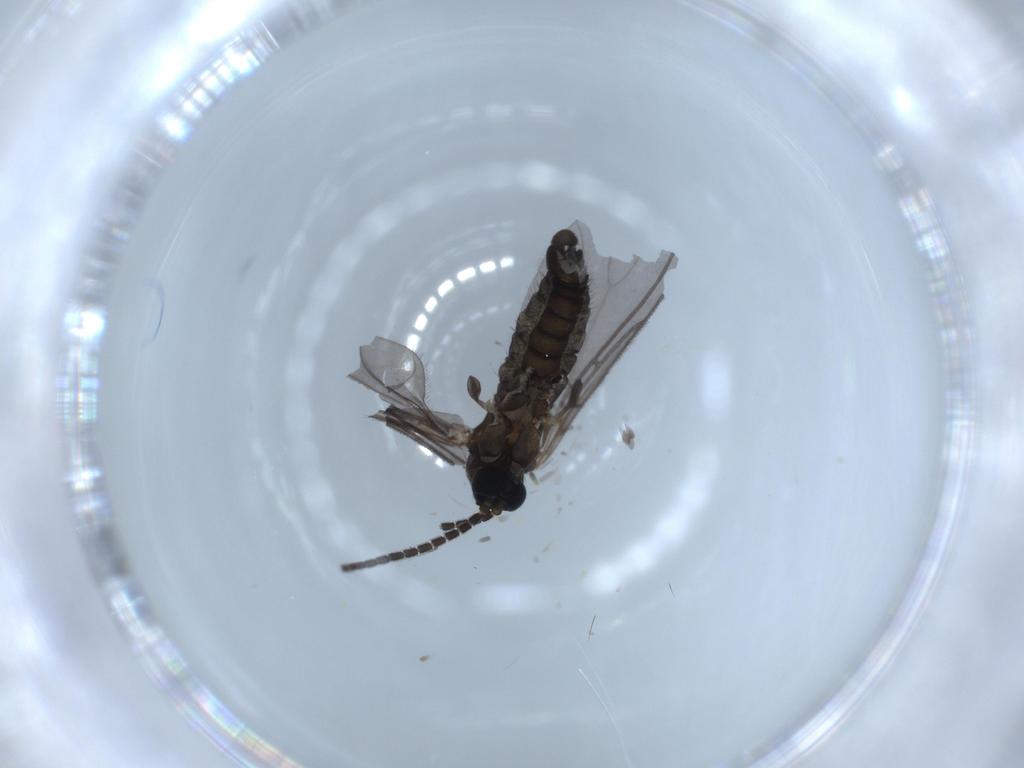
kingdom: Animalia
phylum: Arthropoda
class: Insecta
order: Diptera
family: Sciaridae
